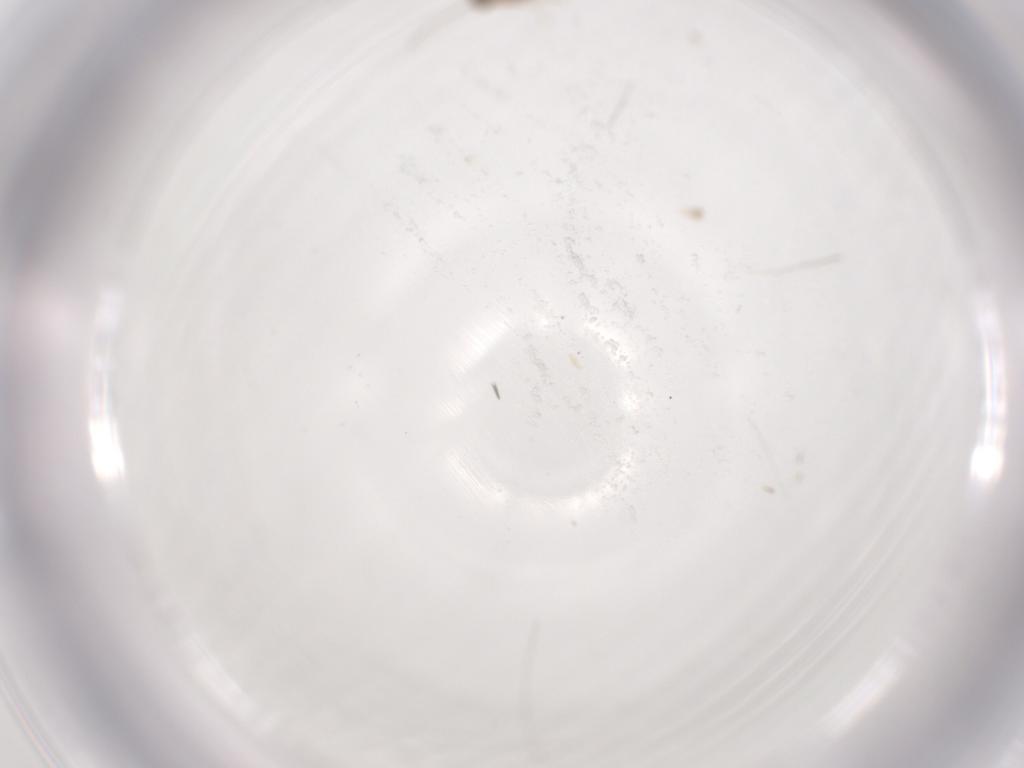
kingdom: Animalia
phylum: Arthropoda
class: Insecta
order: Diptera
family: Cecidomyiidae
